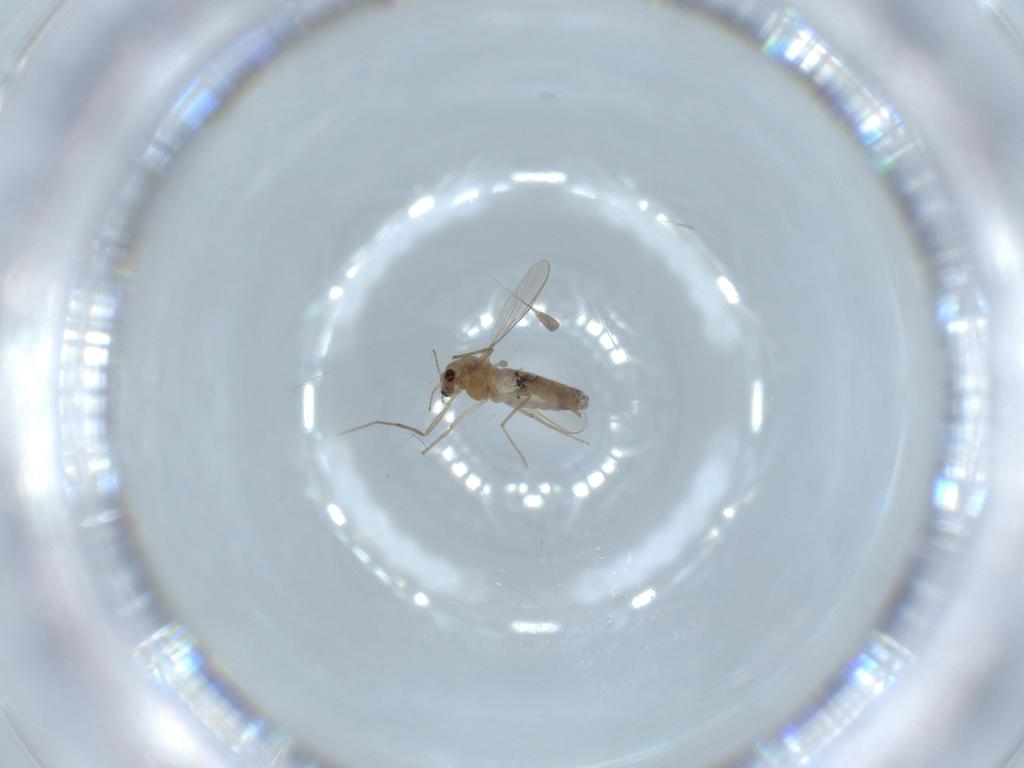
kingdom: Animalia
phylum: Arthropoda
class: Insecta
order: Diptera
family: Chironomidae
